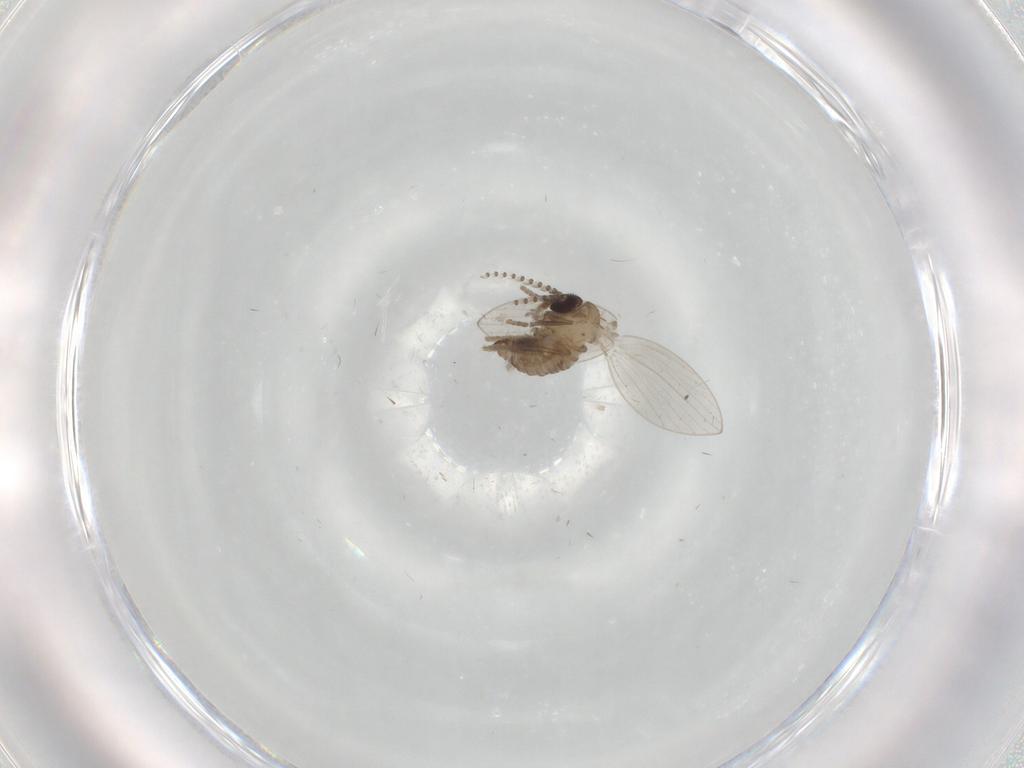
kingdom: Animalia
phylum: Arthropoda
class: Insecta
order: Diptera
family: Psychodidae
